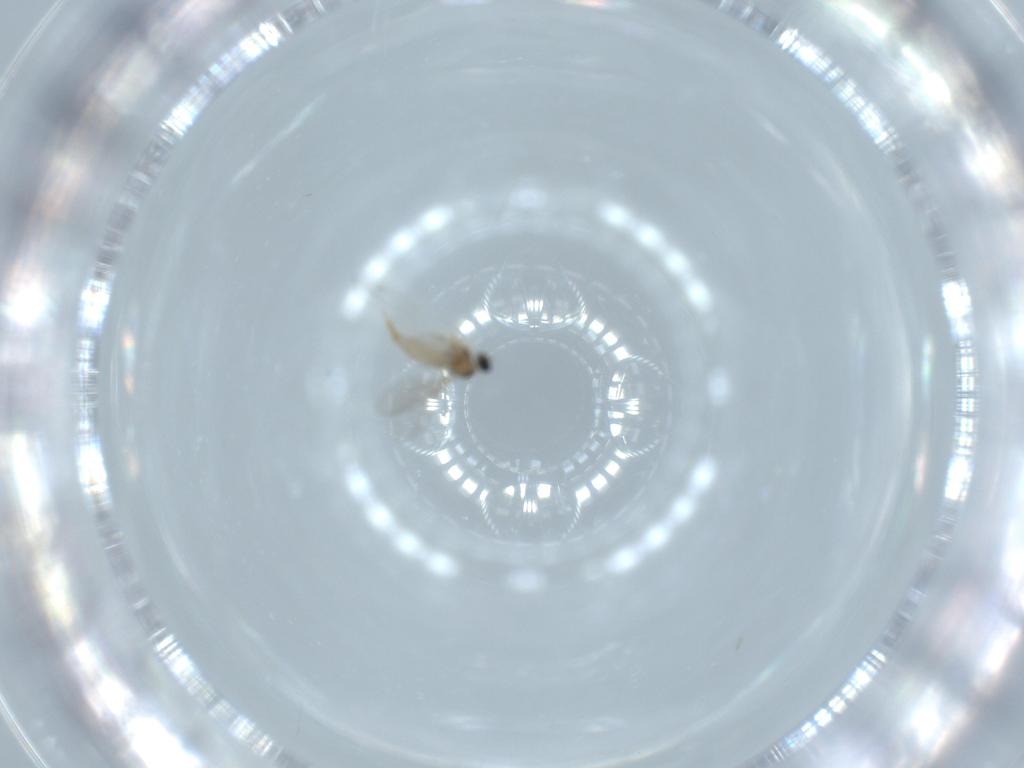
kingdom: Animalia
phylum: Arthropoda
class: Insecta
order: Diptera
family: Limoniidae
